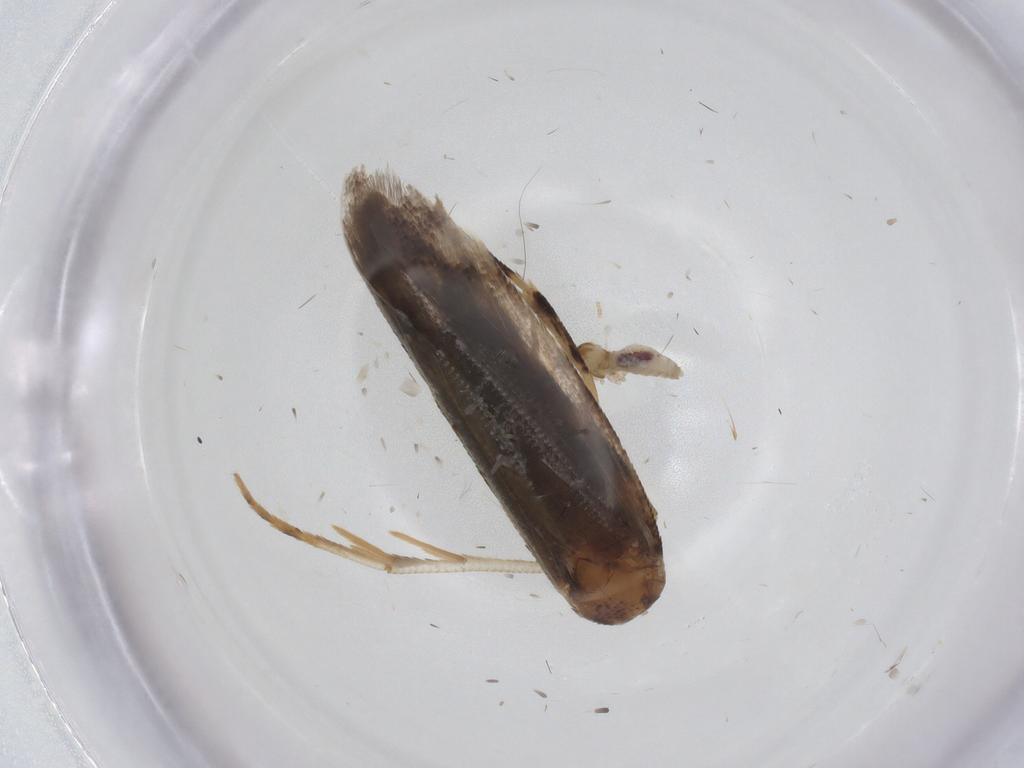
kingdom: Animalia
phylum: Arthropoda
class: Insecta
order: Lepidoptera
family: Gelechiidae
